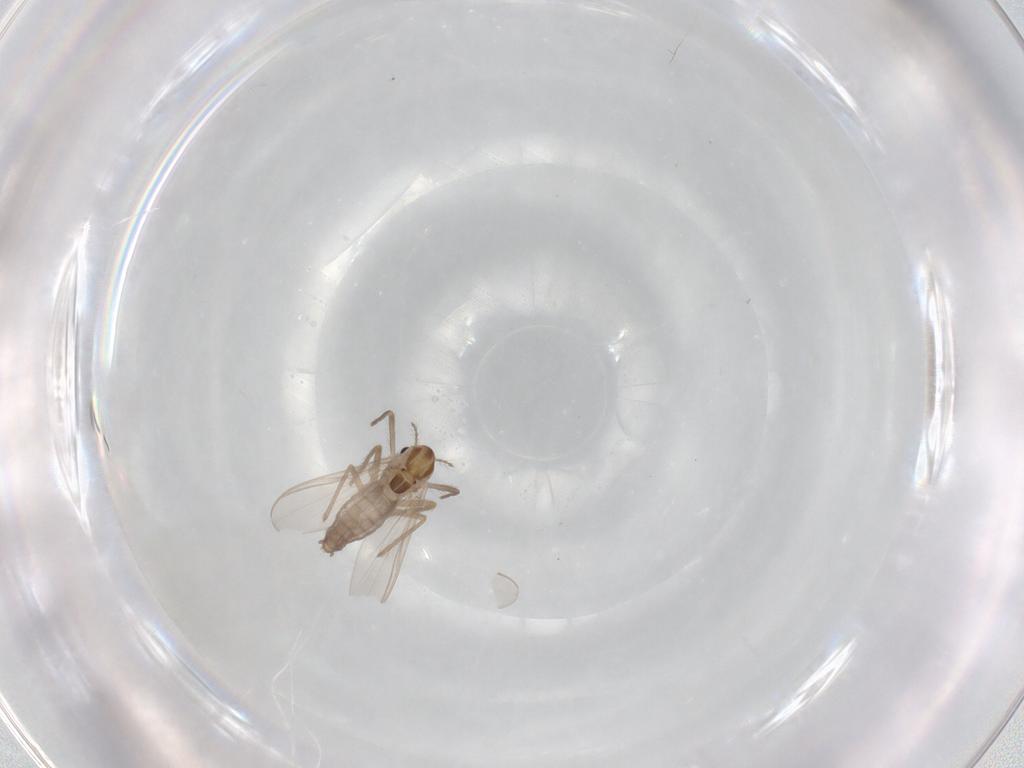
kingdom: Animalia
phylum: Arthropoda
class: Insecta
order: Diptera
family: Chironomidae
